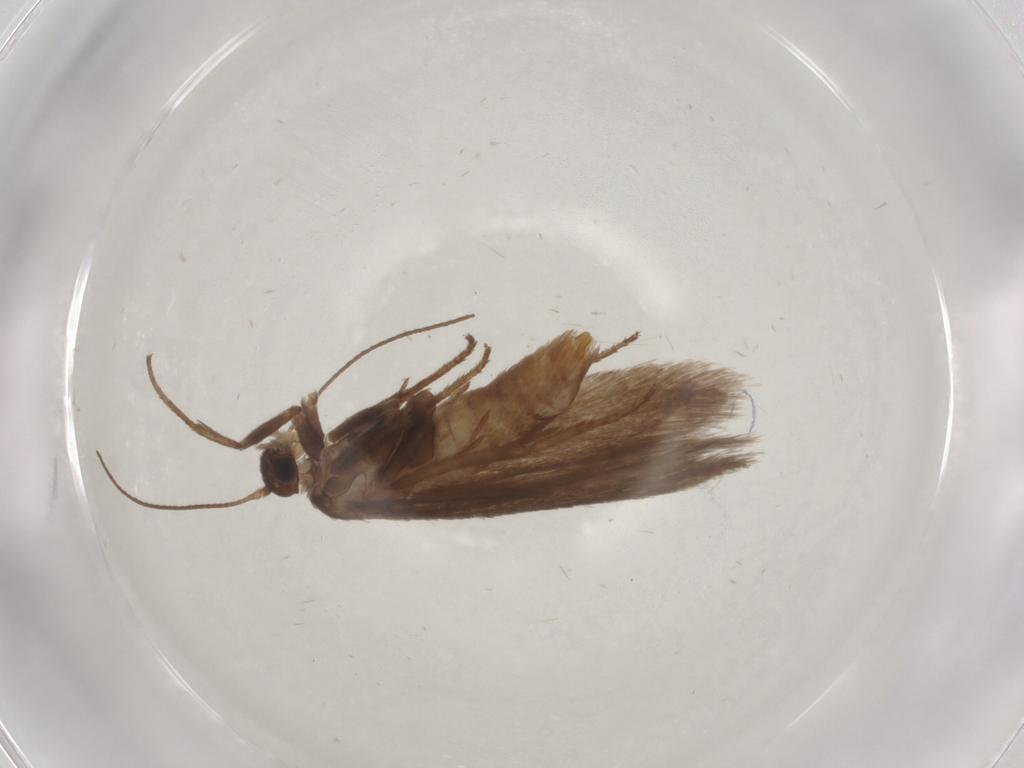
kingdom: Animalia
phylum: Arthropoda
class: Insecta
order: Lepidoptera
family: Limacodidae
